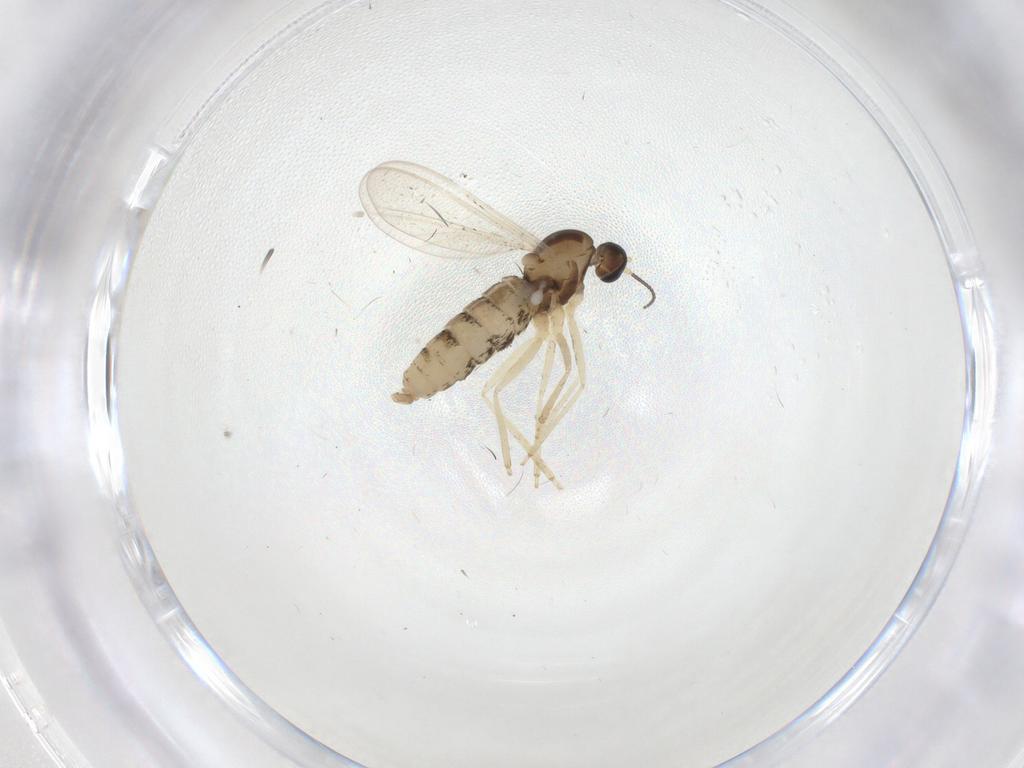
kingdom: Animalia
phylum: Arthropoda
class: Insecta
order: Diptera
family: Cecidomyiidae
